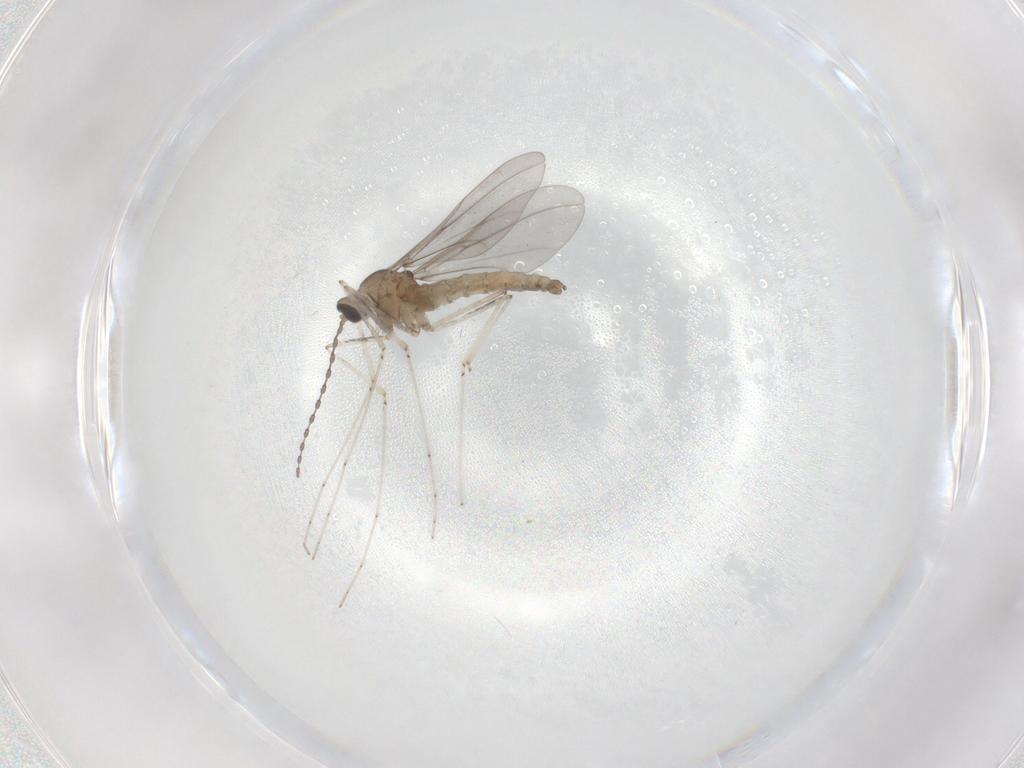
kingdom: Animalia
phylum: Arthropoda
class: Insecta
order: Diptera
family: Cecidomyiidae
